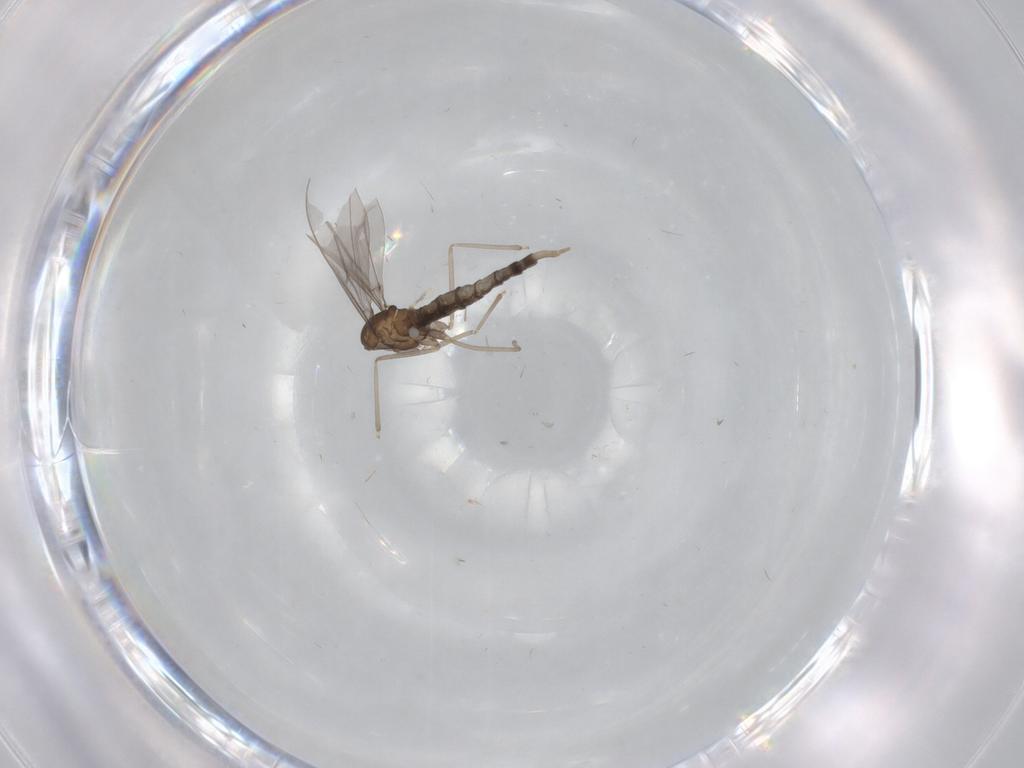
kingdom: Animalia
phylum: Arthropoda
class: Insecta
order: Diptera
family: Cecidomyiidae
